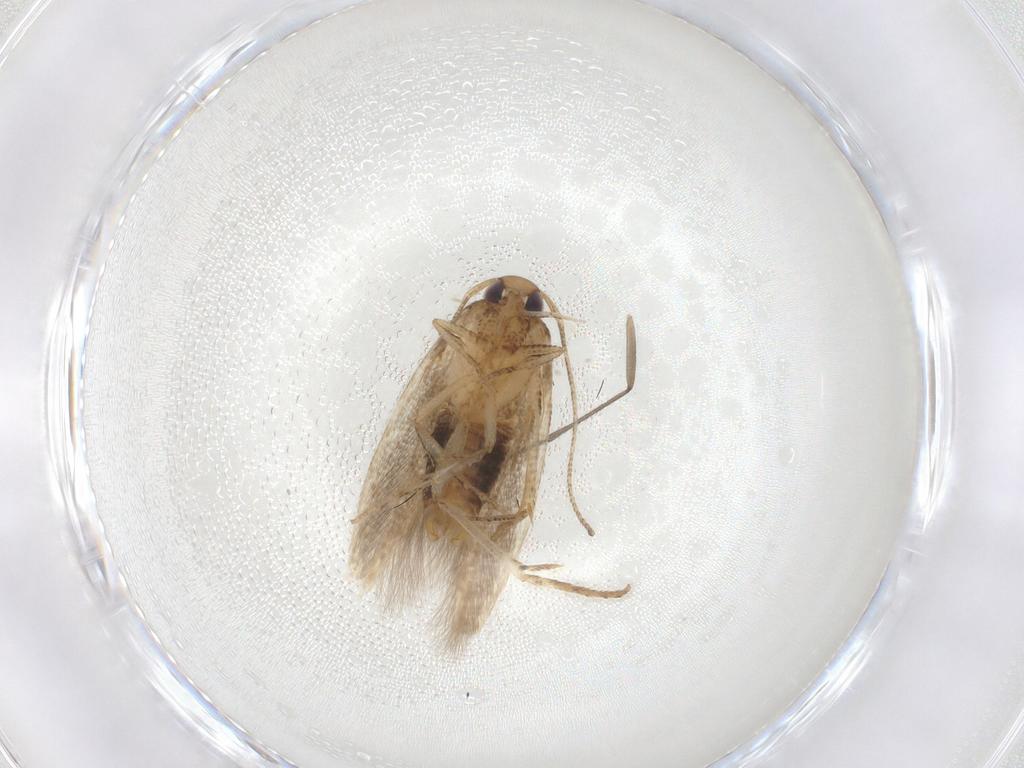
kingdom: Animalia
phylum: Arthropoda
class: Insecta
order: Lepidoptera
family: Cosmopterigidae
